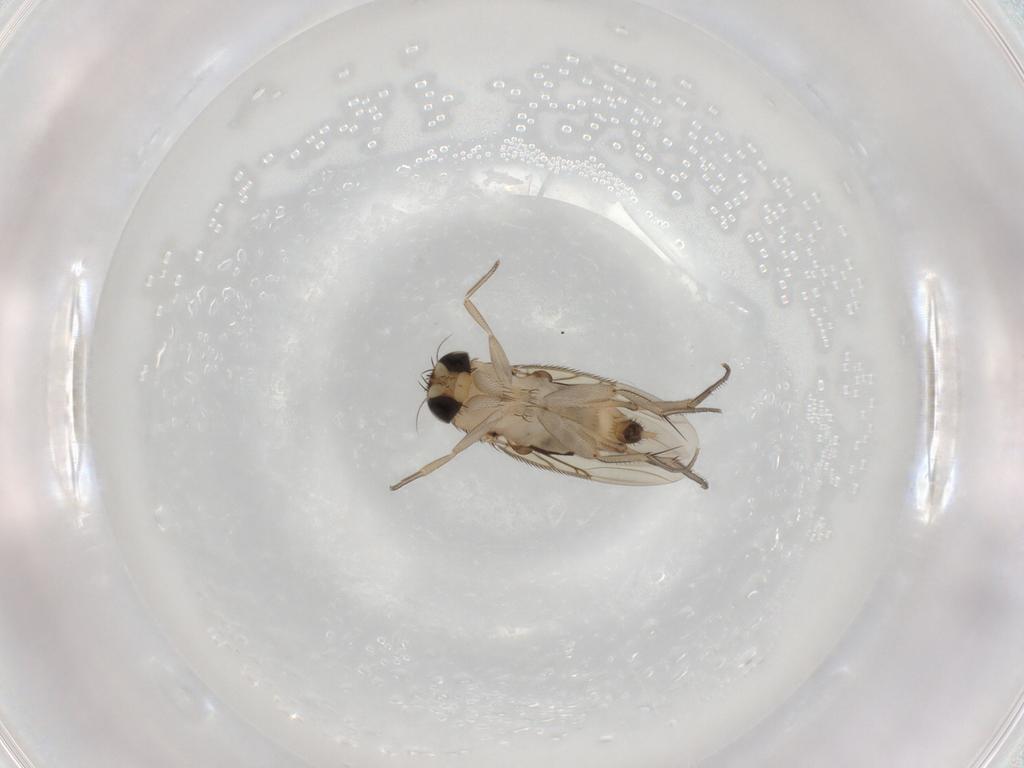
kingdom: Animalia
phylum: Arthropoda
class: Insecta
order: Diptera
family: Phoridae
